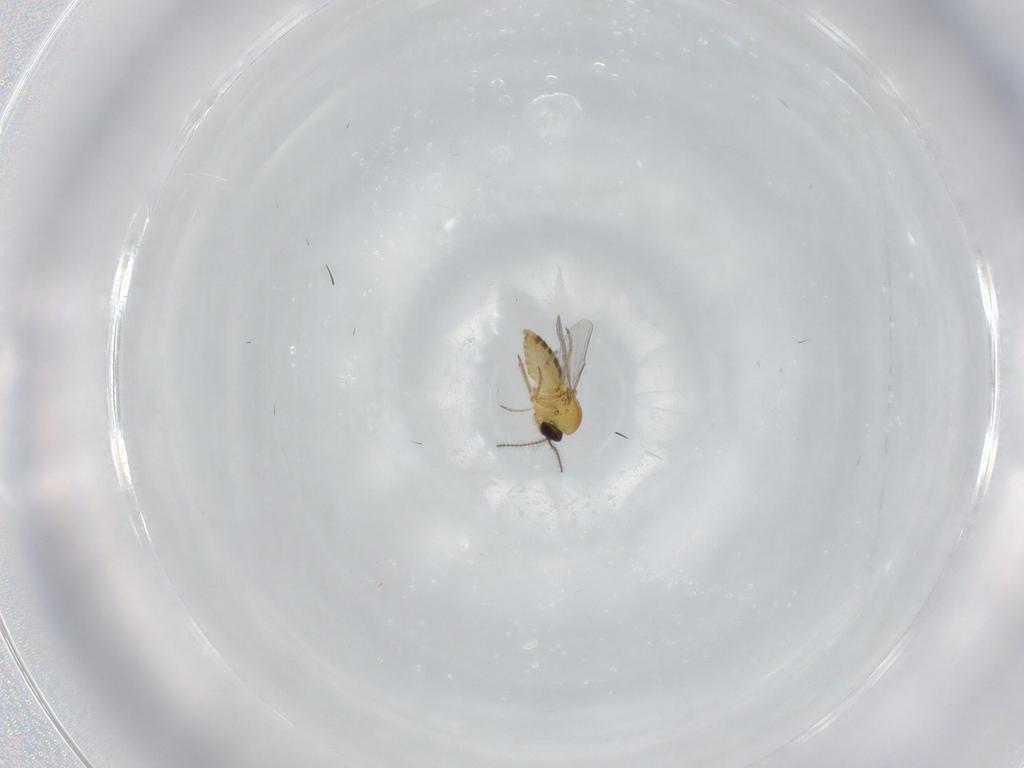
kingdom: Animalia
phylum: Arthropoda
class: Insecta
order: Diptera
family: Ceratopogonidae
